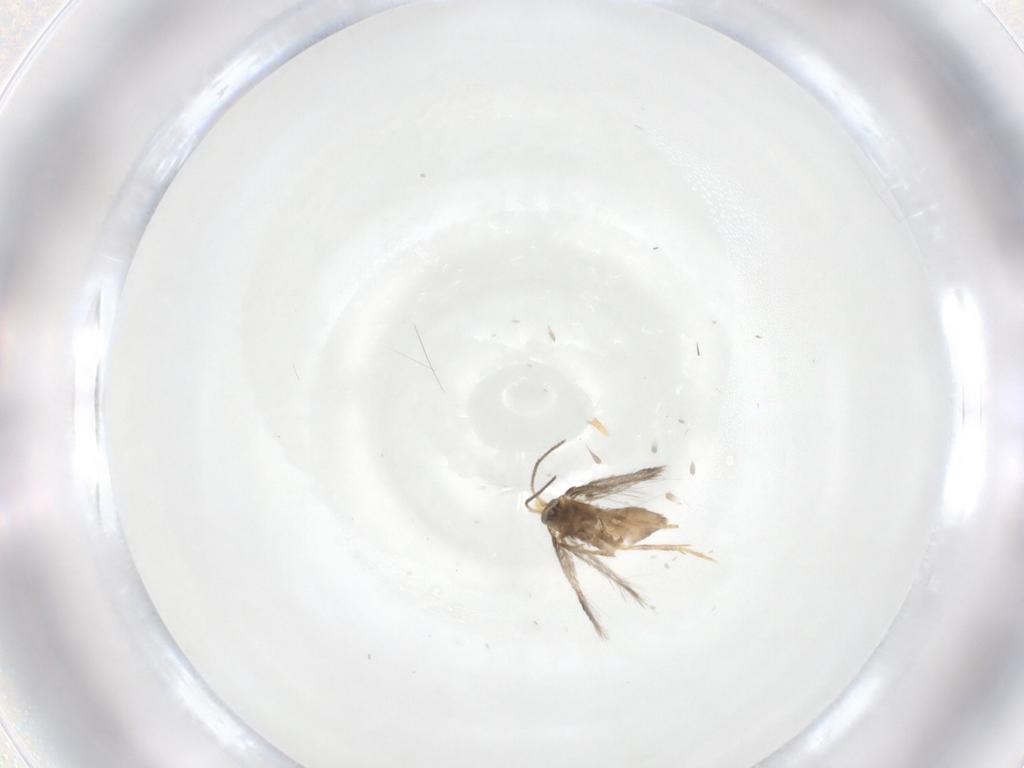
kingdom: Animalia
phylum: Arthropoda
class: Insecta
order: Lepidoptera
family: Nepticulidae
